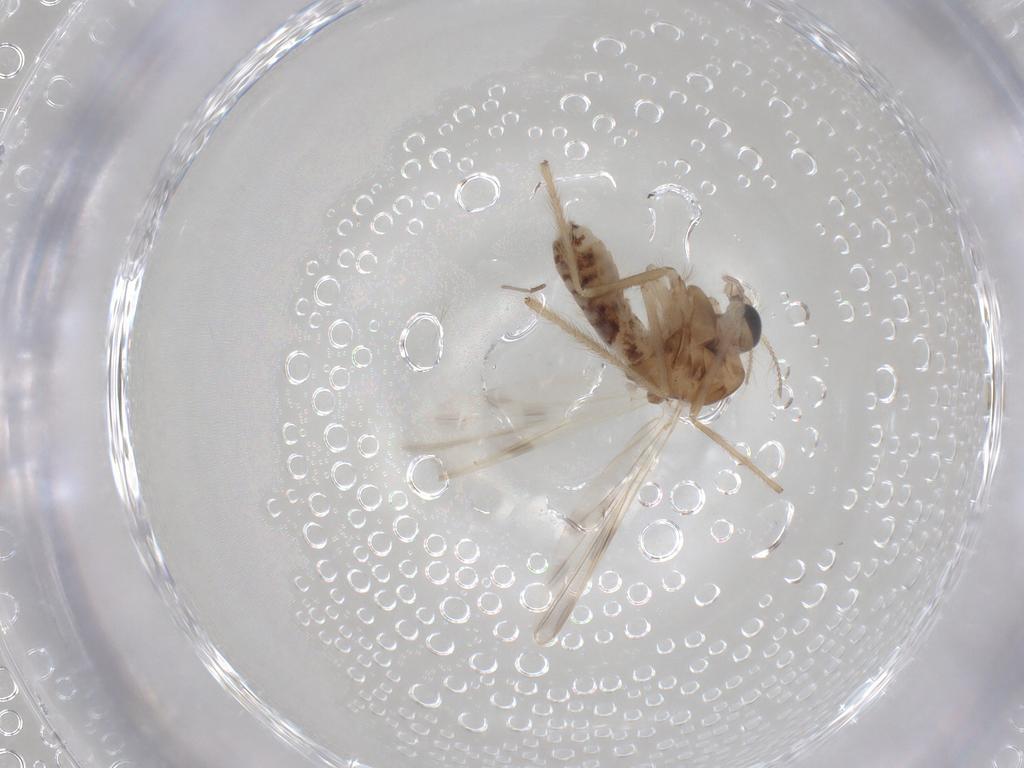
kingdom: Animalia
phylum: Arthropoda
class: Insecta
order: Diptera
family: Chironomidae
